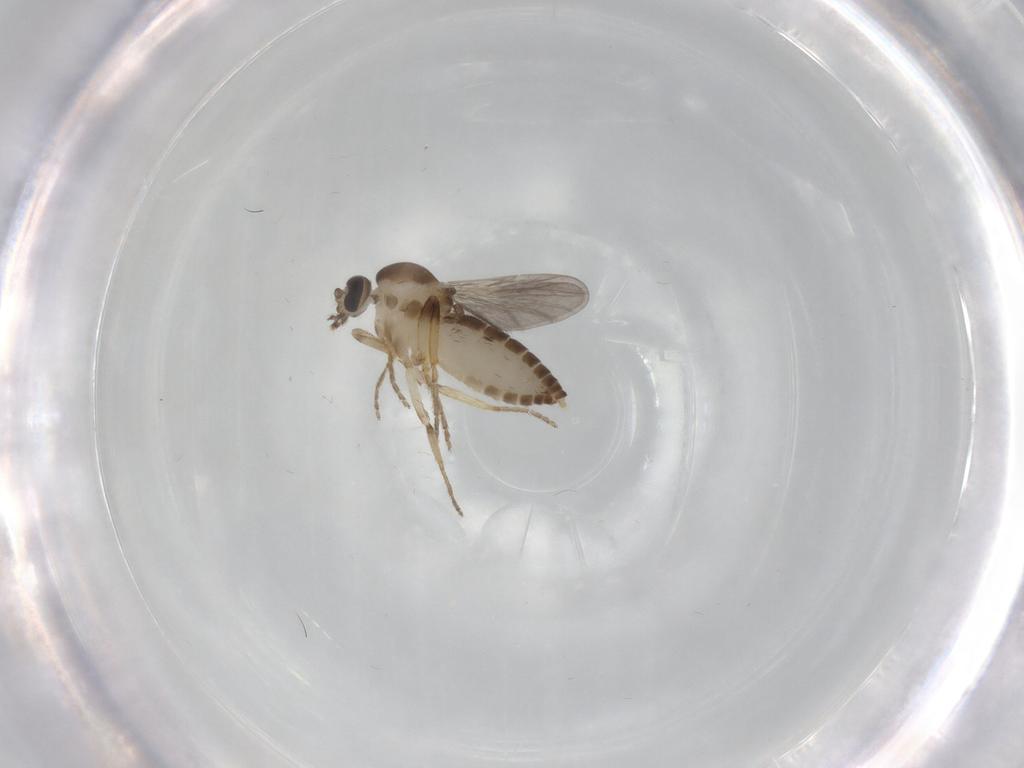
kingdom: Animalia
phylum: Arthropoda
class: Insecta
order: Diptera
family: Ceratopogonidae
